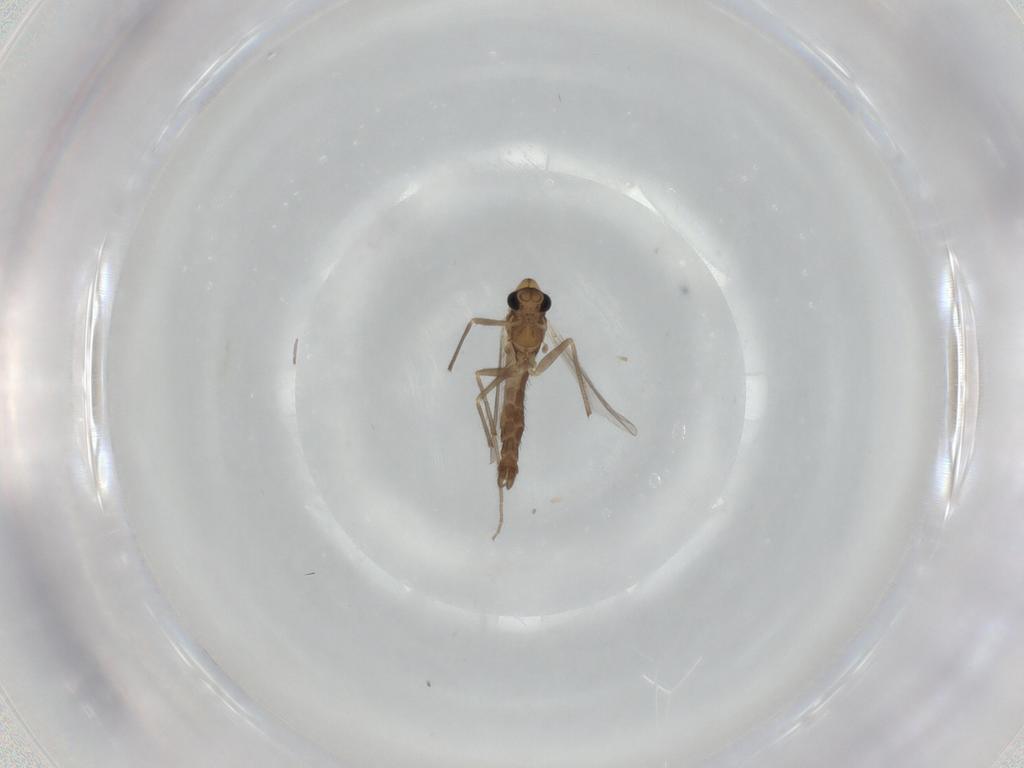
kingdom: Animalia
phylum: Arthropoda
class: Insecta
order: Diptera
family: Chironomidae
